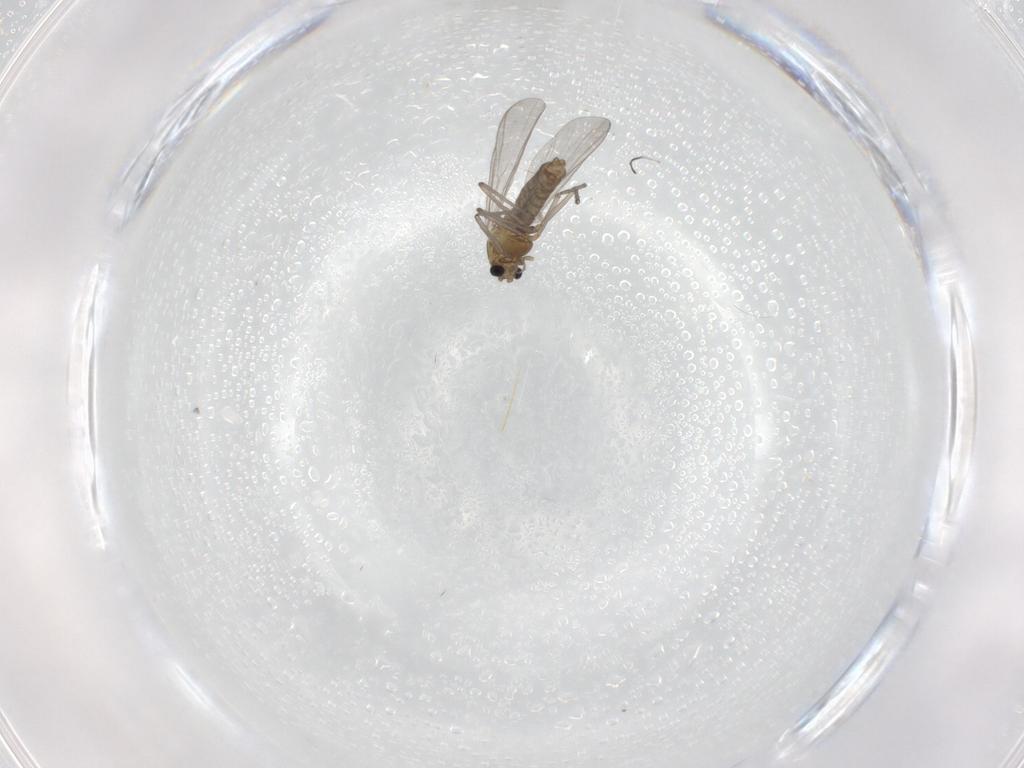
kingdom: Animalia
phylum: Arthropoda
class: Insecta
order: Diptera
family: Chironomidae
